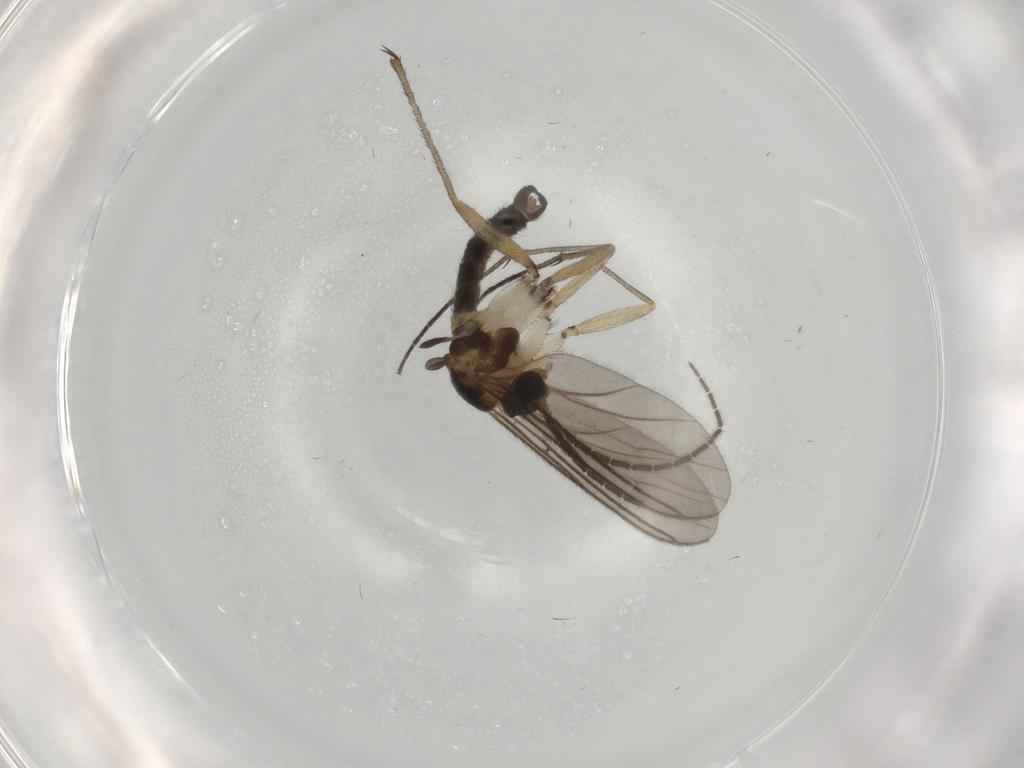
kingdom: Animalia
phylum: Arthropoda
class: Insecta
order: Diptera
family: Sciaridae
